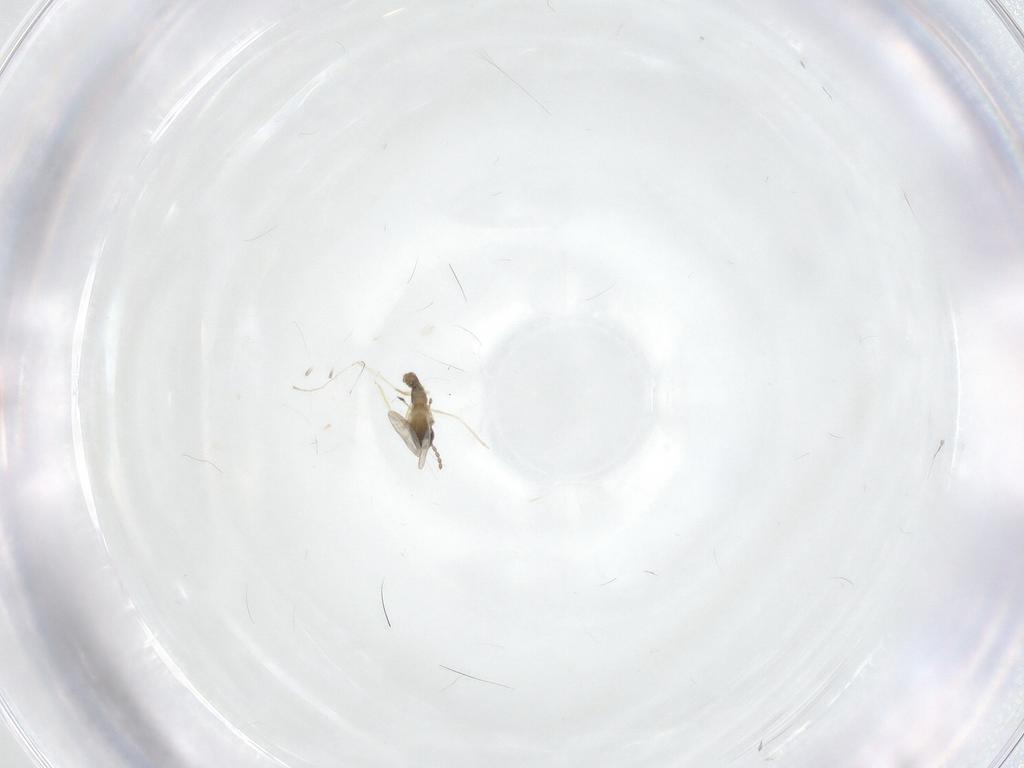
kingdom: Animalia
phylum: Arthropoda
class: Insecta
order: Diptera
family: Cecidomyiidae
